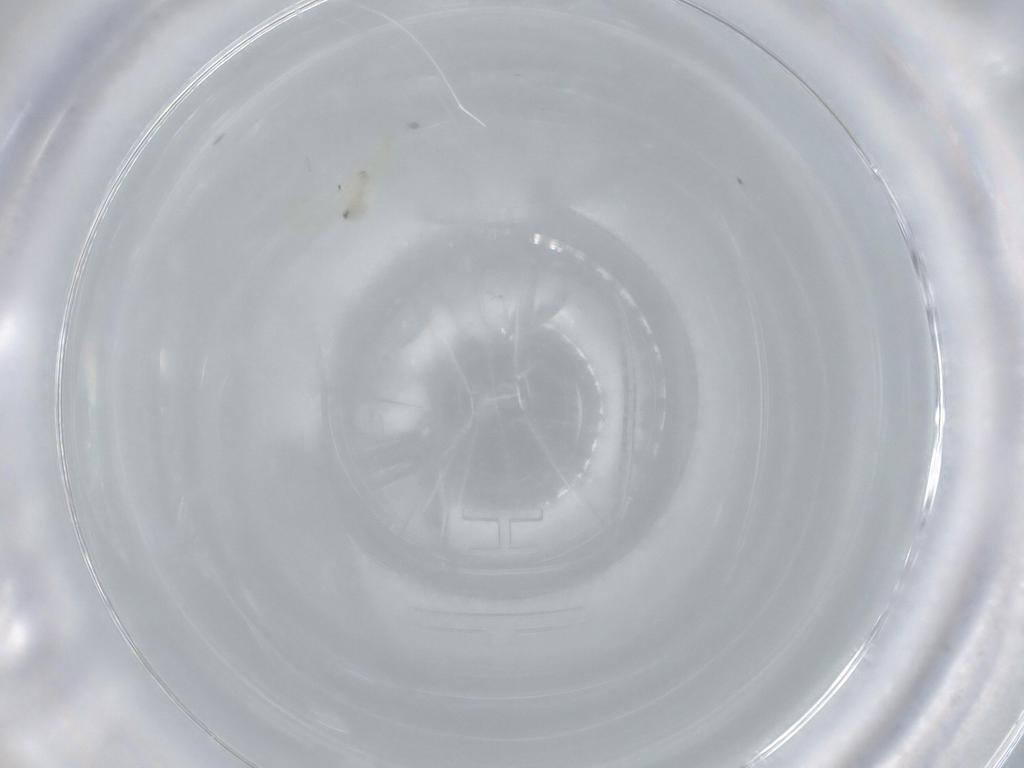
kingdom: Animalia
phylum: Arthropoda
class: Insecta
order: Hemiptera
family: Aleyrodidae
